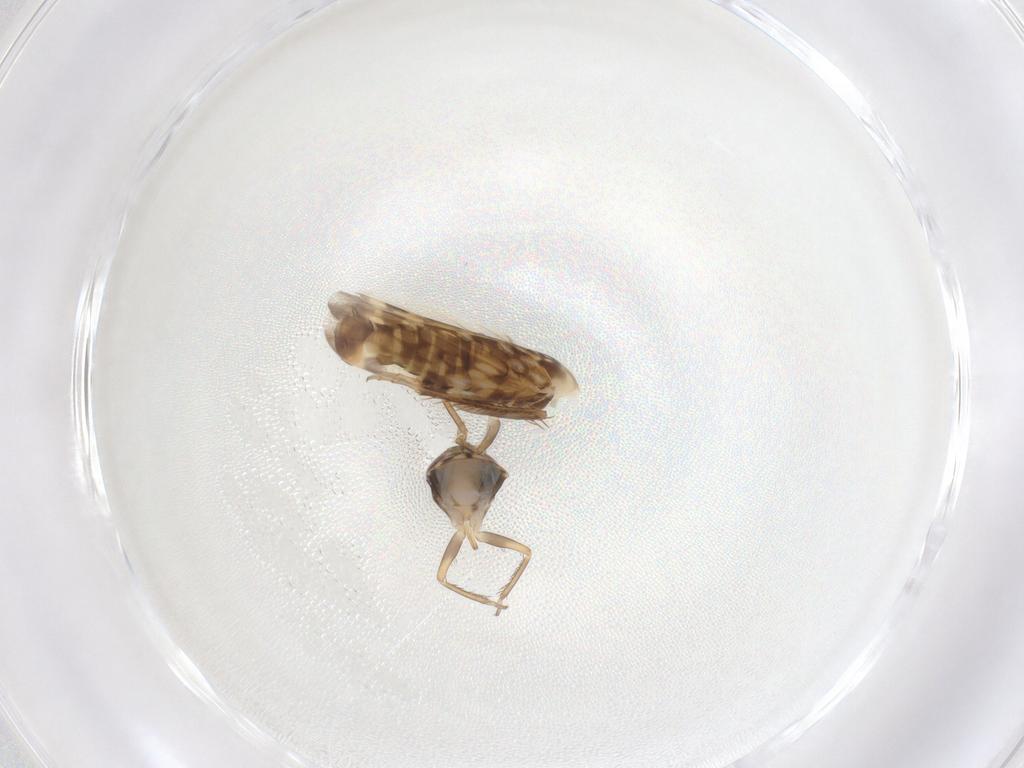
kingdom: Animalia
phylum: Arthropoda
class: Insecta
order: Hemiptera
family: Cicadellidae
